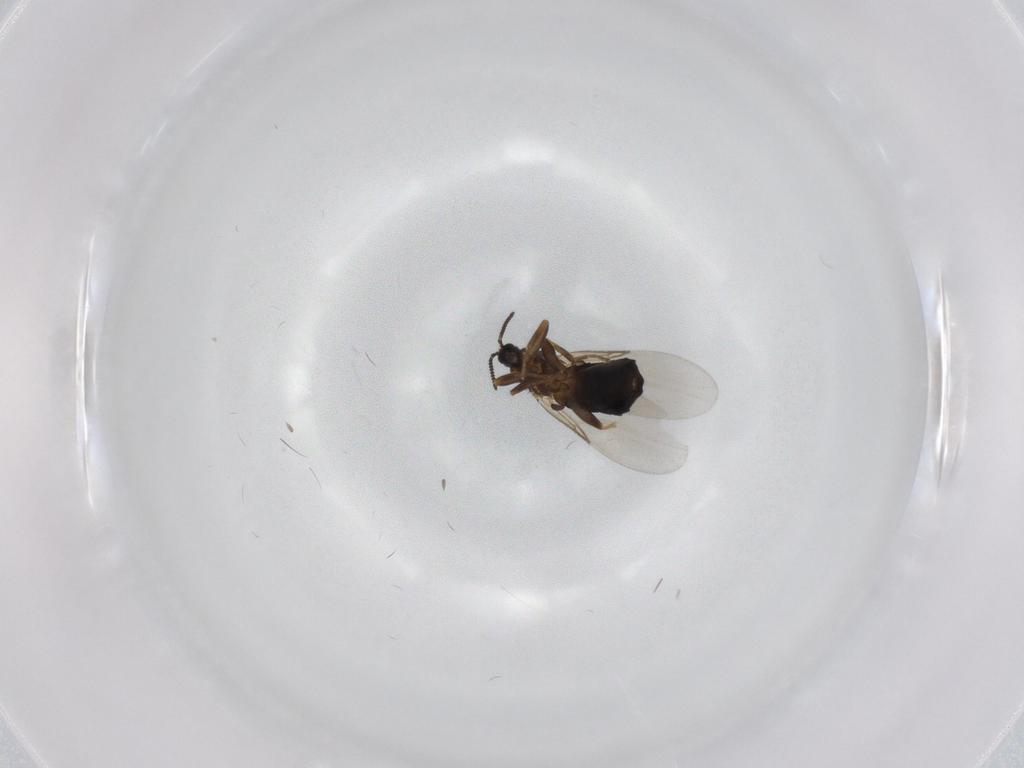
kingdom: Animalia
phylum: Arthropoda
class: Insecta
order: Diptera
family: Scatopsidae
